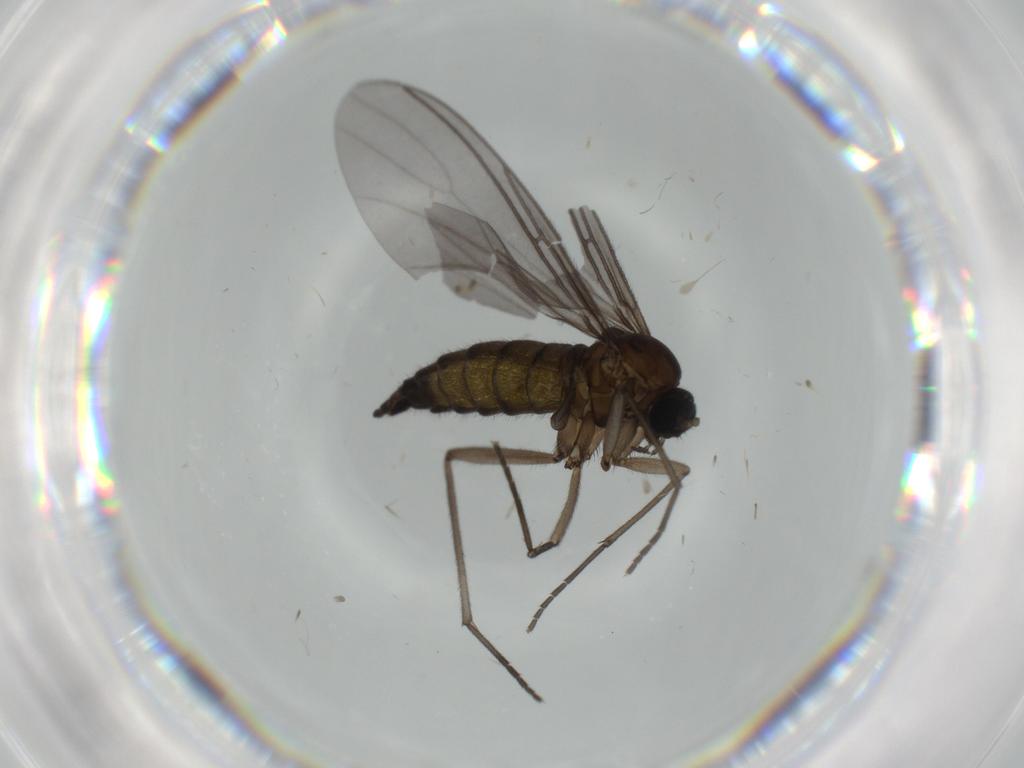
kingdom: Animalia
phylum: Arthropoda
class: Insecta
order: Diptera
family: Sciaridae
